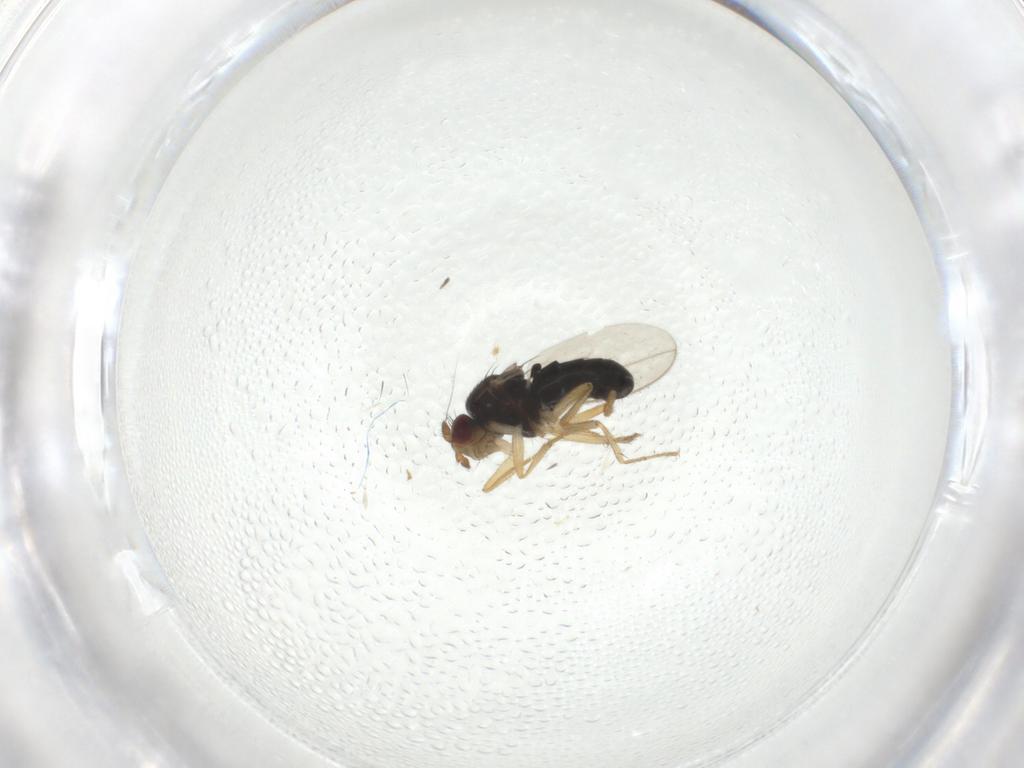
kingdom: Animalia
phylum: Arthropoda
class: Insecta
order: Diptera
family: Sphaeroceridae
